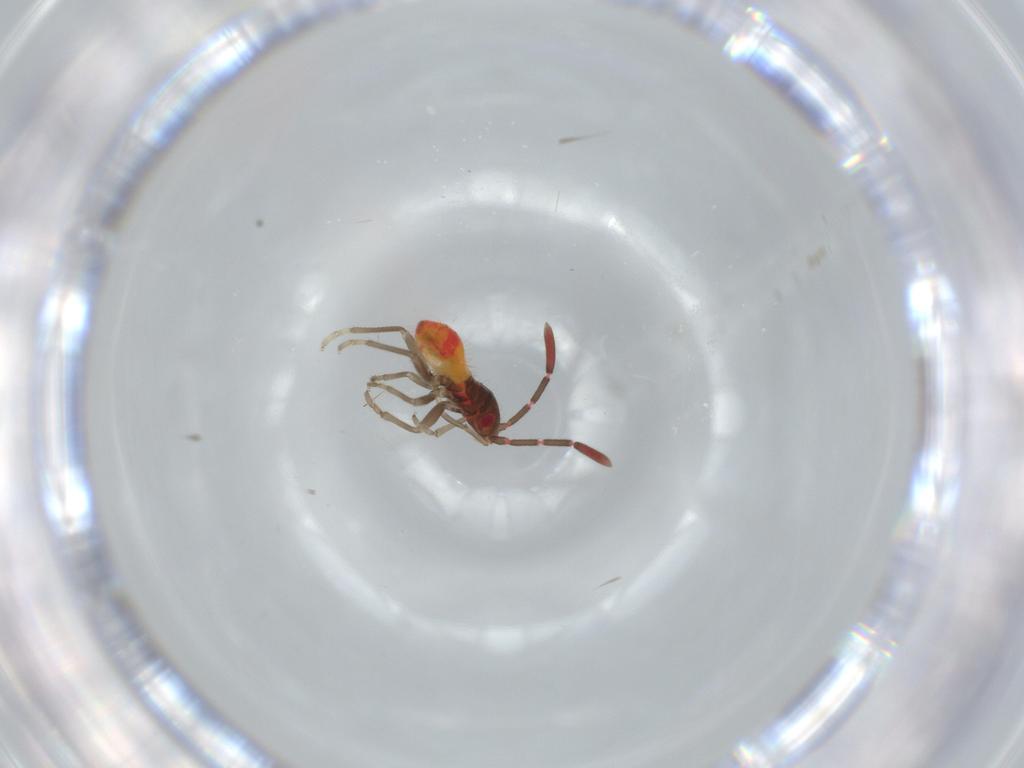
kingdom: Animalia
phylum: Arthropoda
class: Insecta
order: Hemiptera
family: Rhyparochromidae
